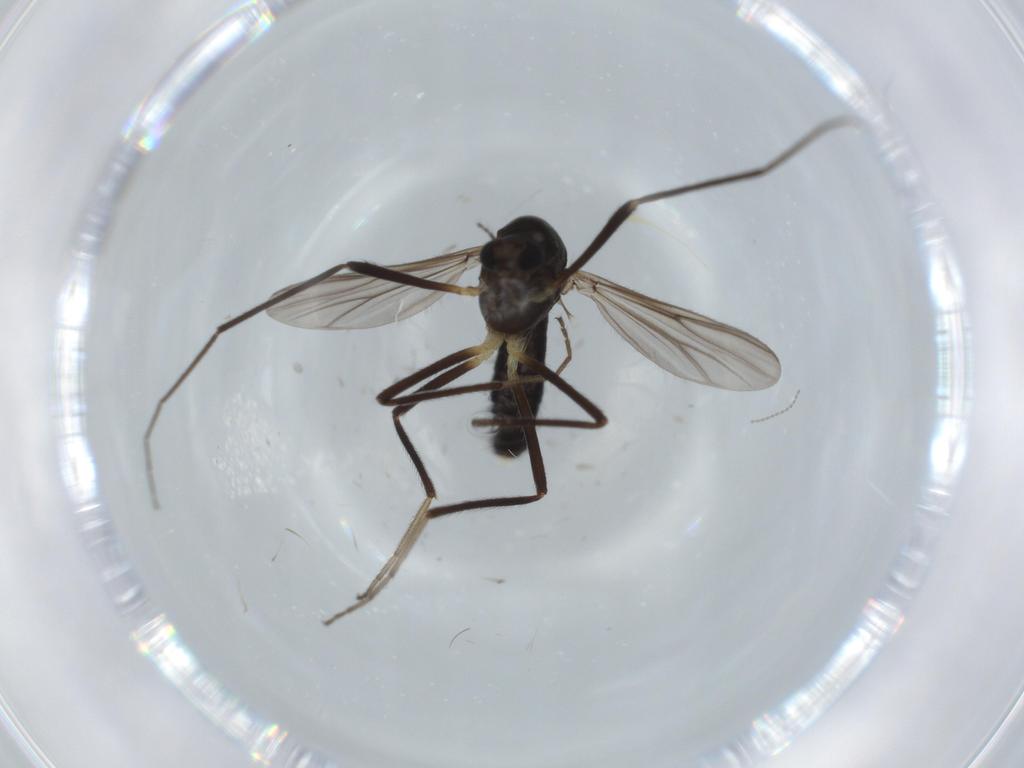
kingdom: Animalia
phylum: Arthropoda
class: Insecta
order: Diptera
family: Chironomidae
